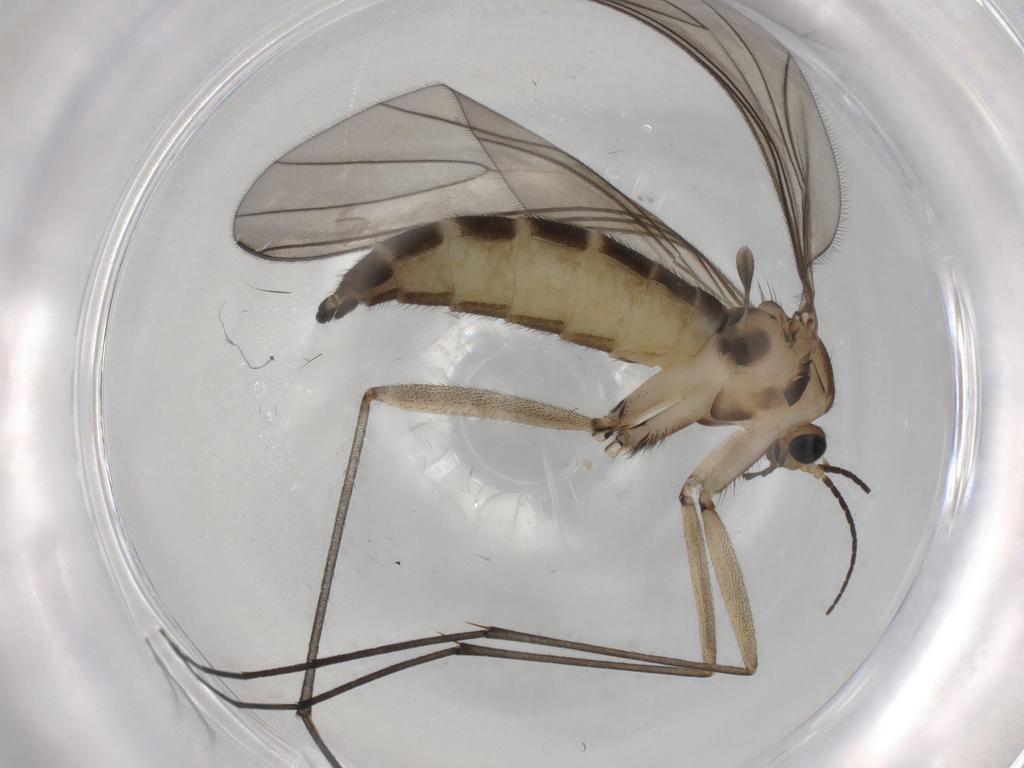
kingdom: Animalia
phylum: Arthropoda
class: Insecta
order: Diptera
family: Sciaridae
